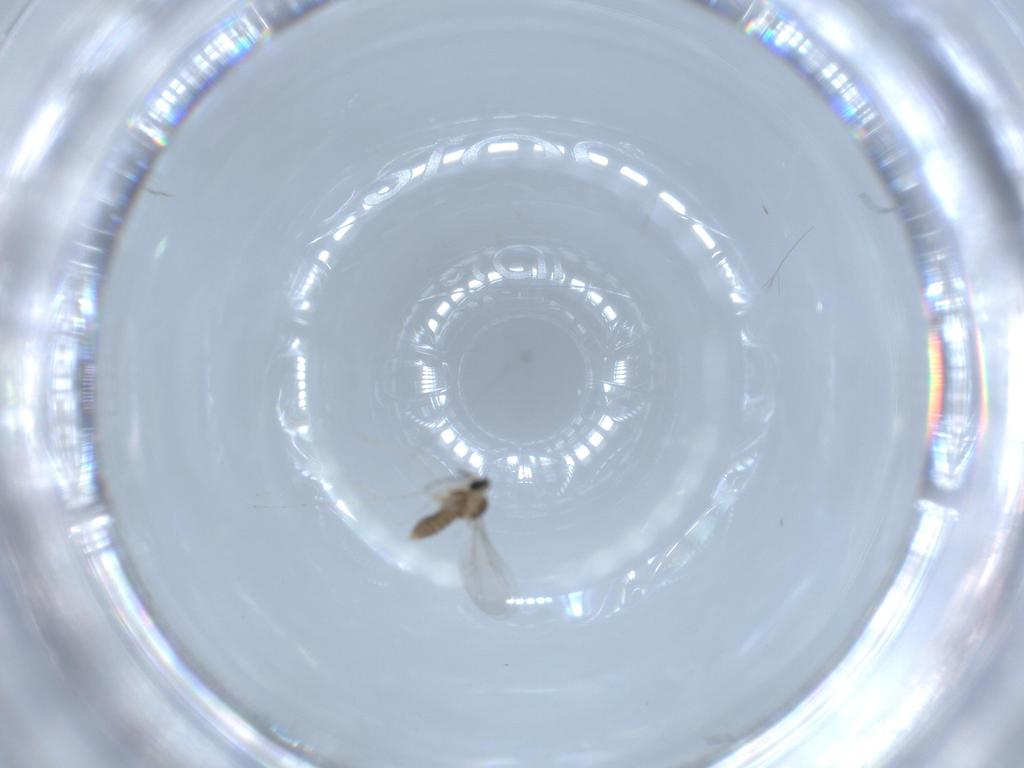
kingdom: Animalia
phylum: Arthropoda
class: Insecta
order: Diptera
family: Cecidomyiidae
